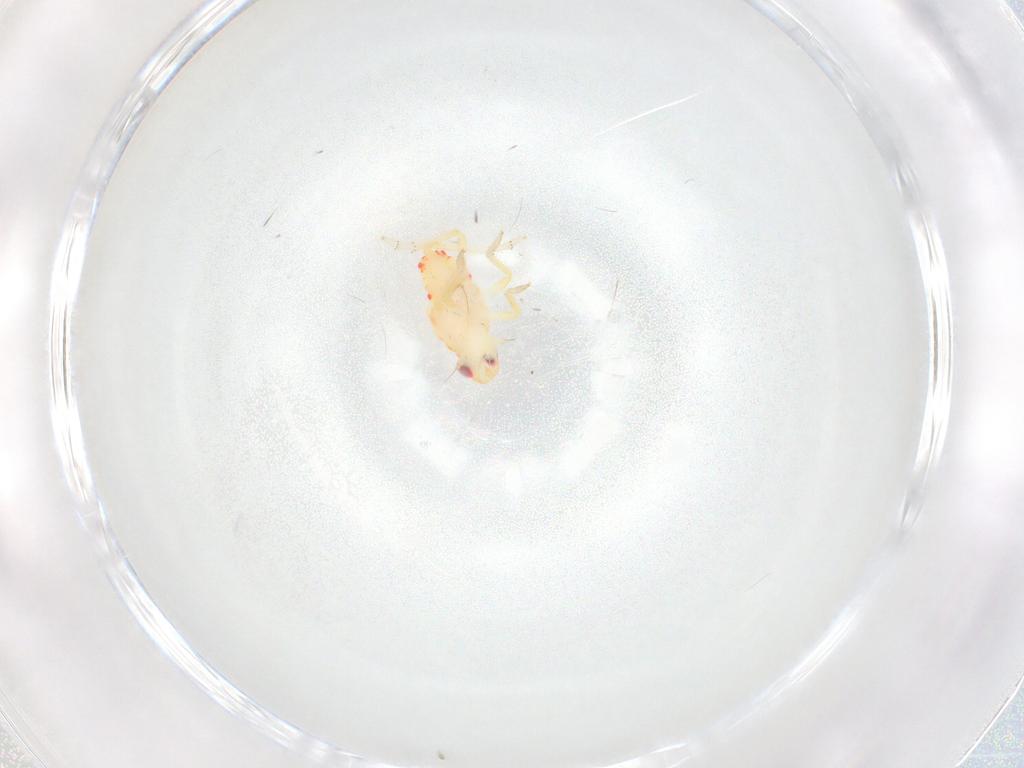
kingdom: Animalia
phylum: Arthropoda
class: Insecta
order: Hemiptera
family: Tropiduchidae
